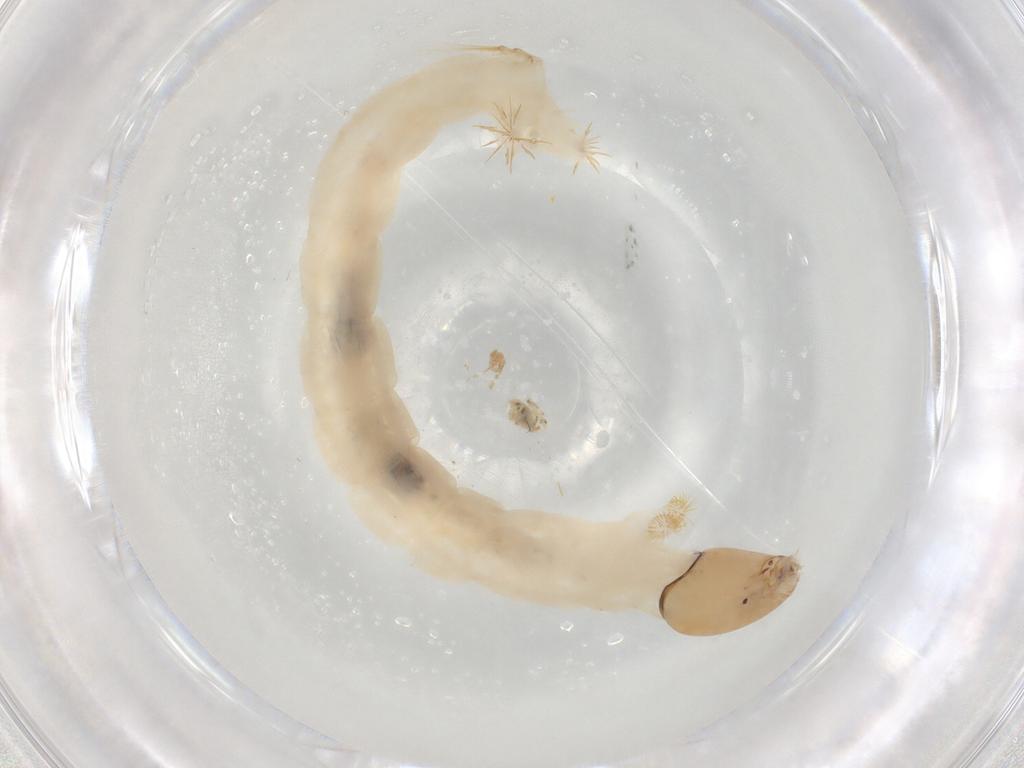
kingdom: Animalia
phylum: Arthropoda
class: Insecta
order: Diptera
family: Chironomidae
